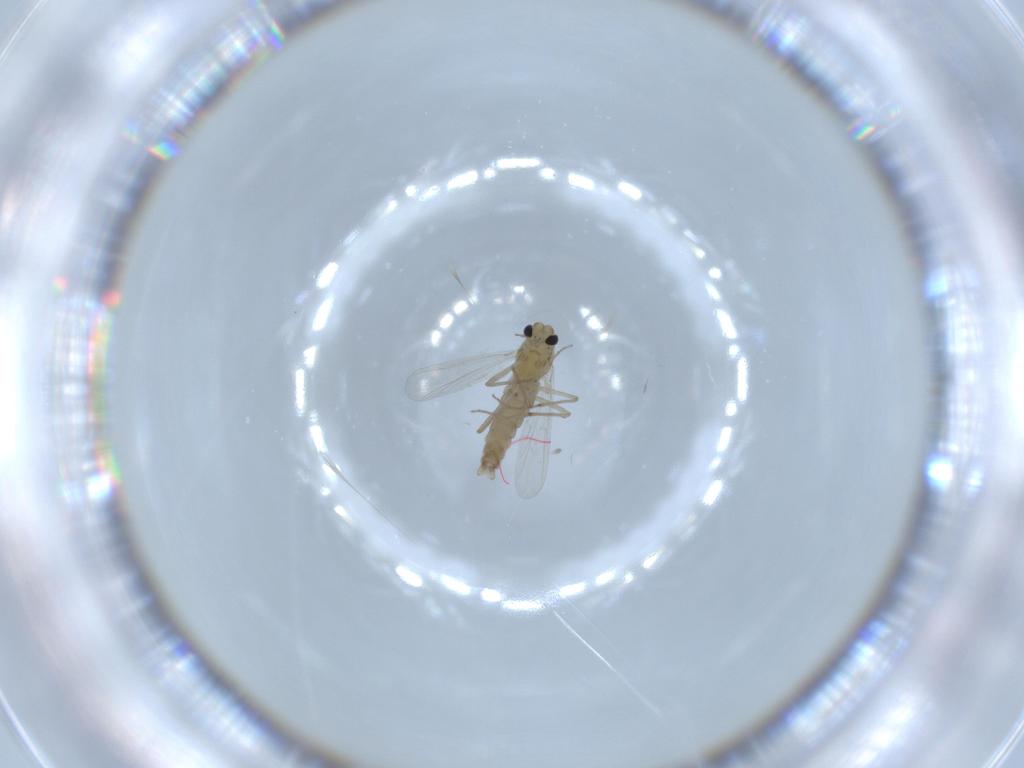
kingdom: Animalia
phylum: Arthropoda
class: Insecta
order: Diptera
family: Chironomidae
